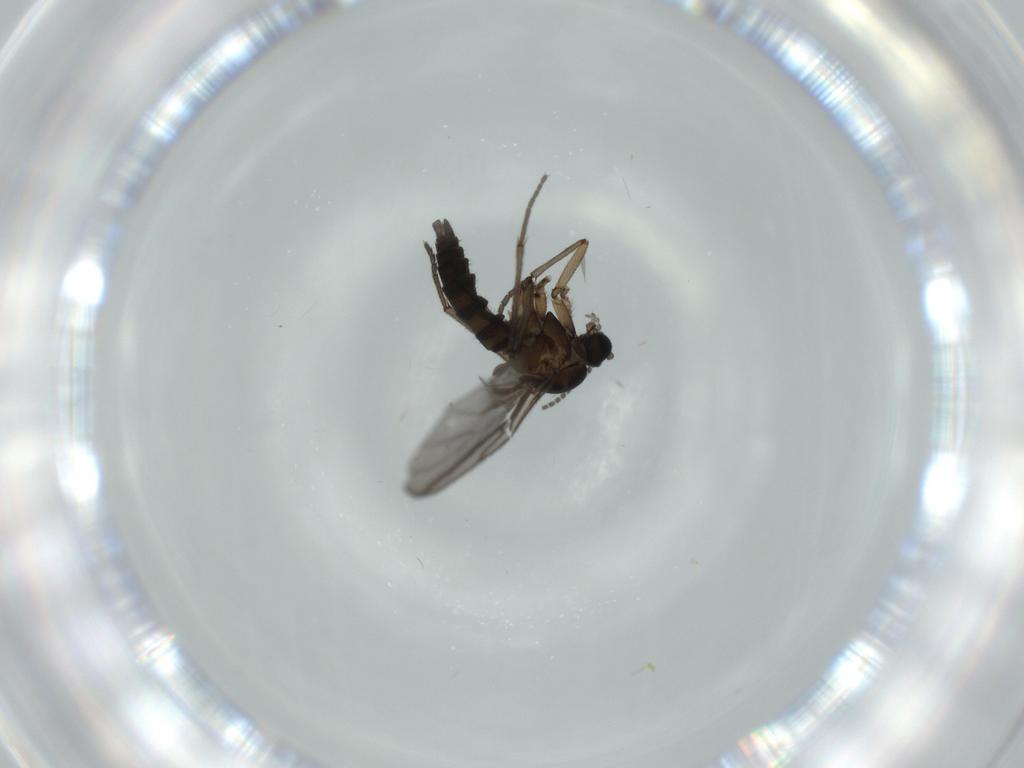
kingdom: Animalia
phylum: Arthropoda
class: Insecta
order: Diptera
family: Sciaridae
